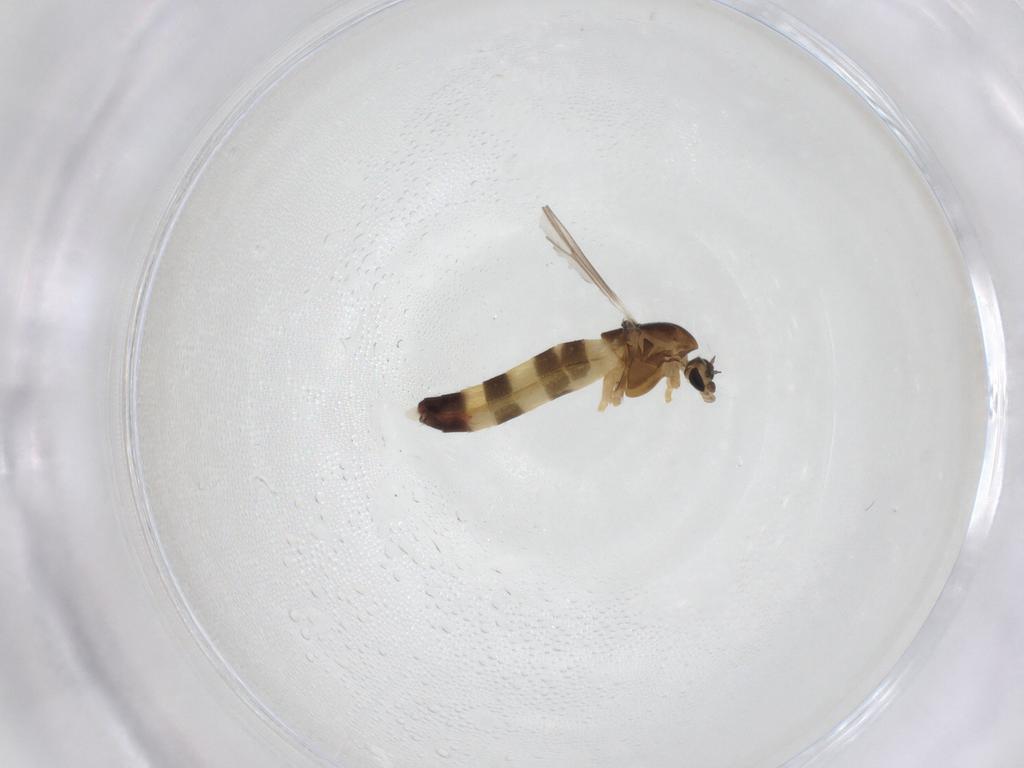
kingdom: Animalia
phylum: Arthropoda
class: Insecta
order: Diptera
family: Chironomidae
